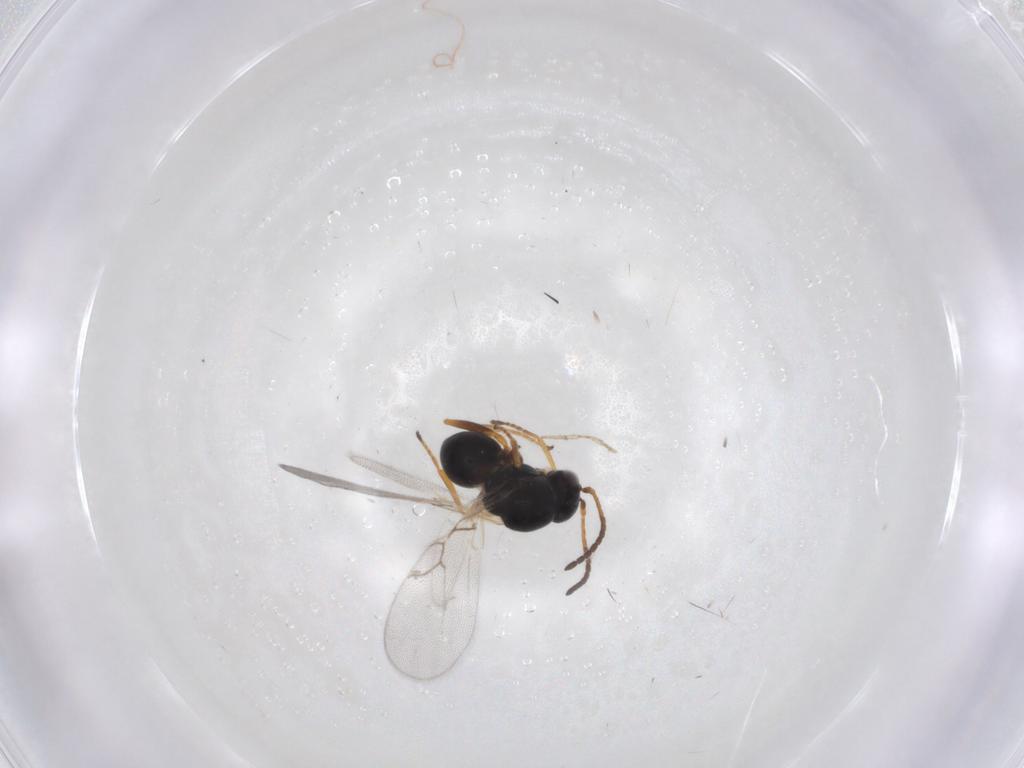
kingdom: Animalia
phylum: Arthropoda
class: Insecta
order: Hymenoptera
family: Figitidae
